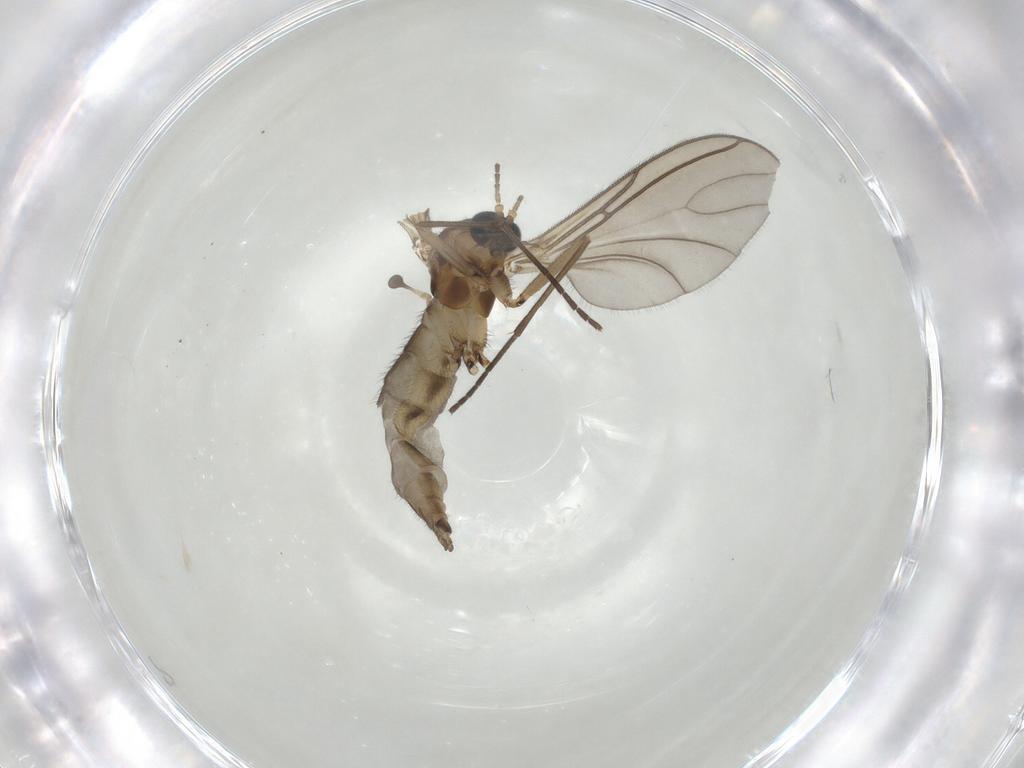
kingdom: Animalia
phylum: Arthropoda
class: Insecta
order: Diptera
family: Sciaridae
